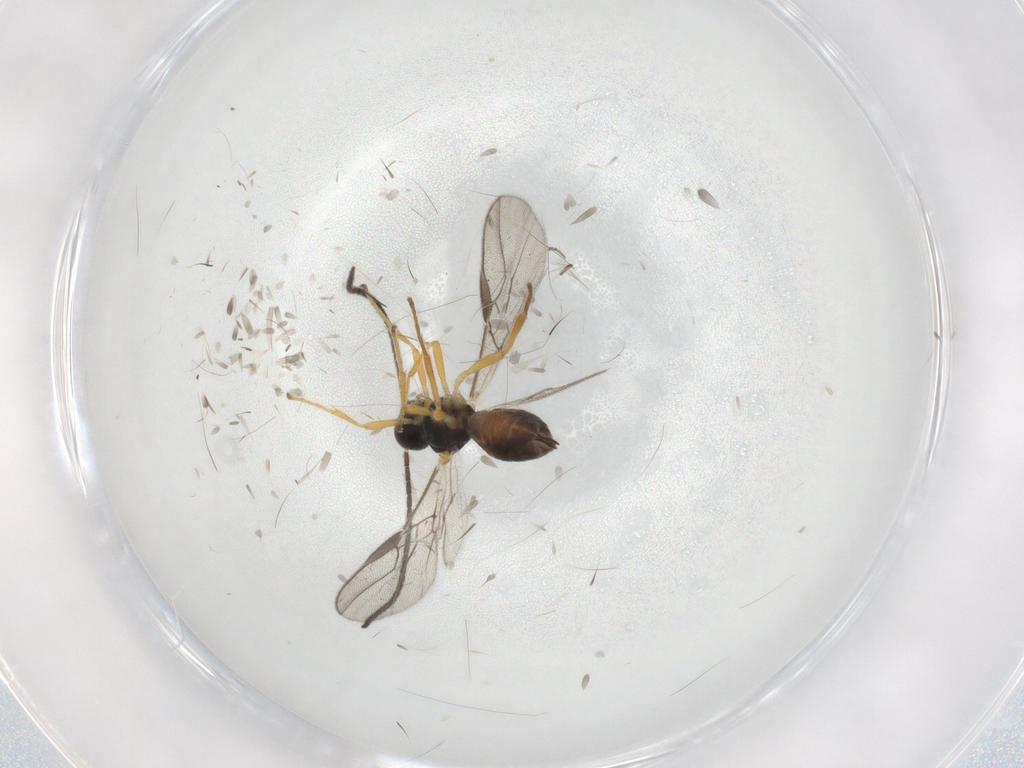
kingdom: Animalia
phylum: Arthropoda
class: Insecta
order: Hymenoptera
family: Braconidae
